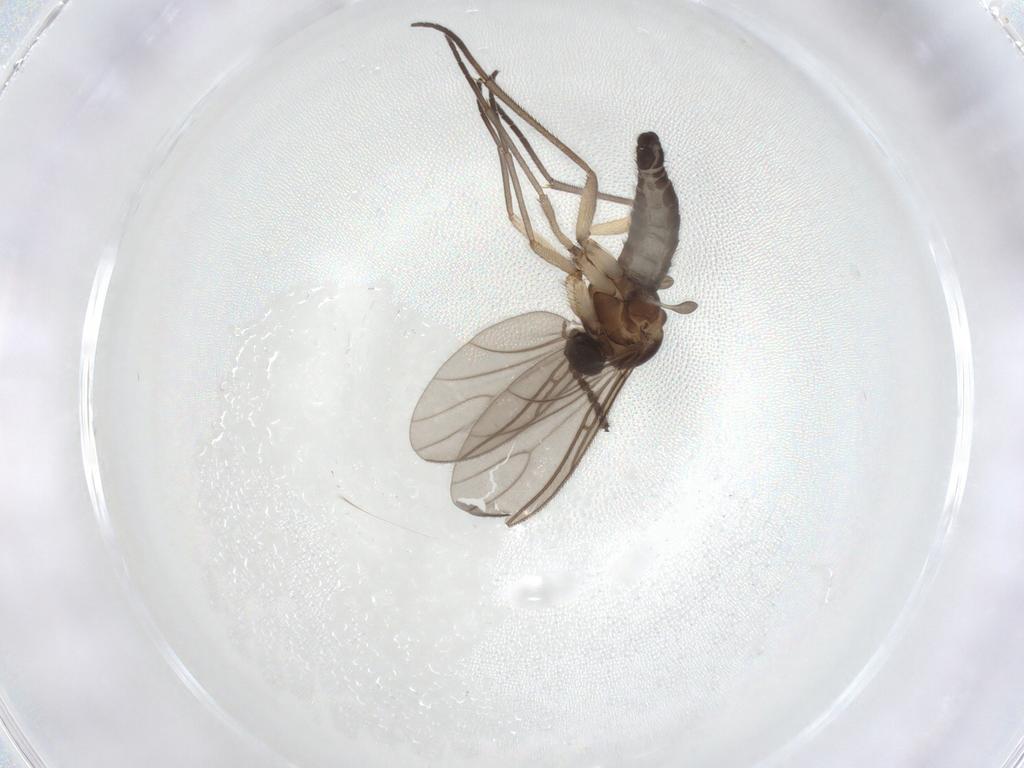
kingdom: Animalia
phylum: Arthropoda
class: Insecta
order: Diptera
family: Sciaridae
